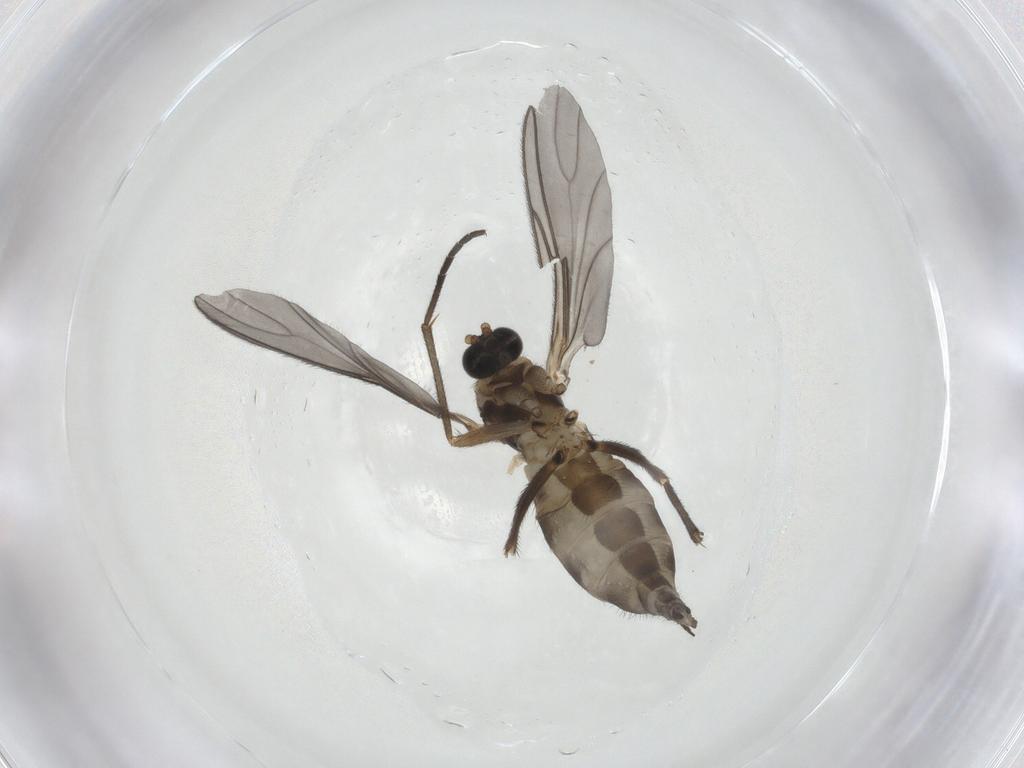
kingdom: Animalia
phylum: Arthropoda
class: Insecta
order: Diptera
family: Sciaridae
